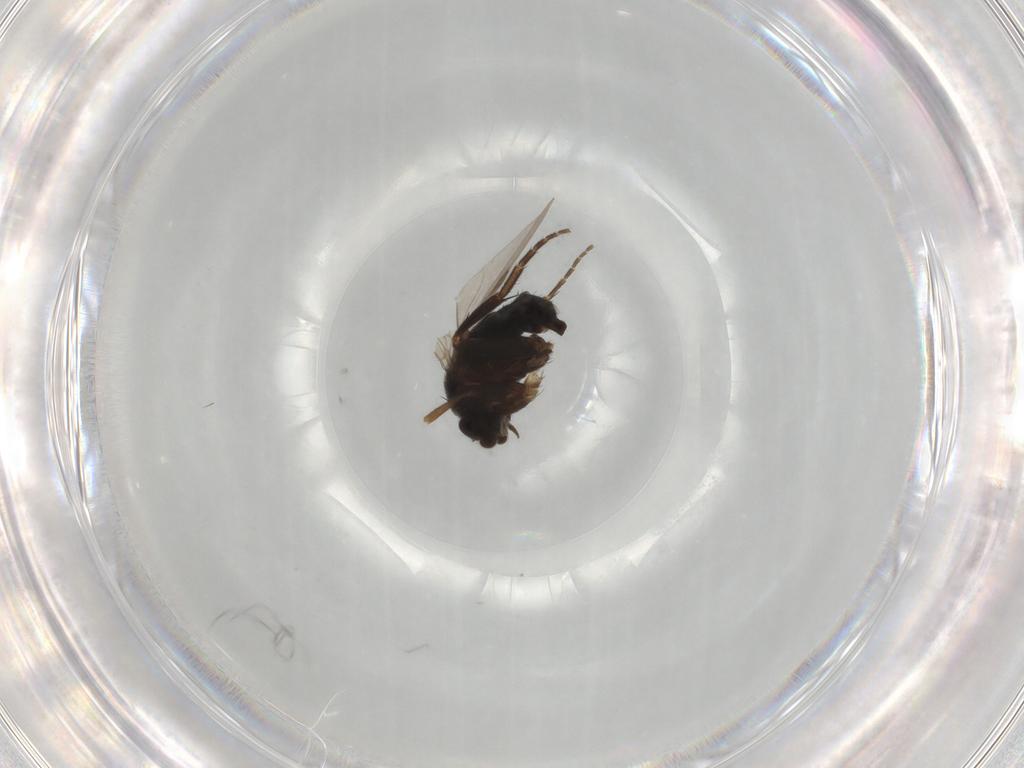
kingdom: Animalia
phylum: Arthropoda
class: Insecta
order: Diptera
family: Phoridae
